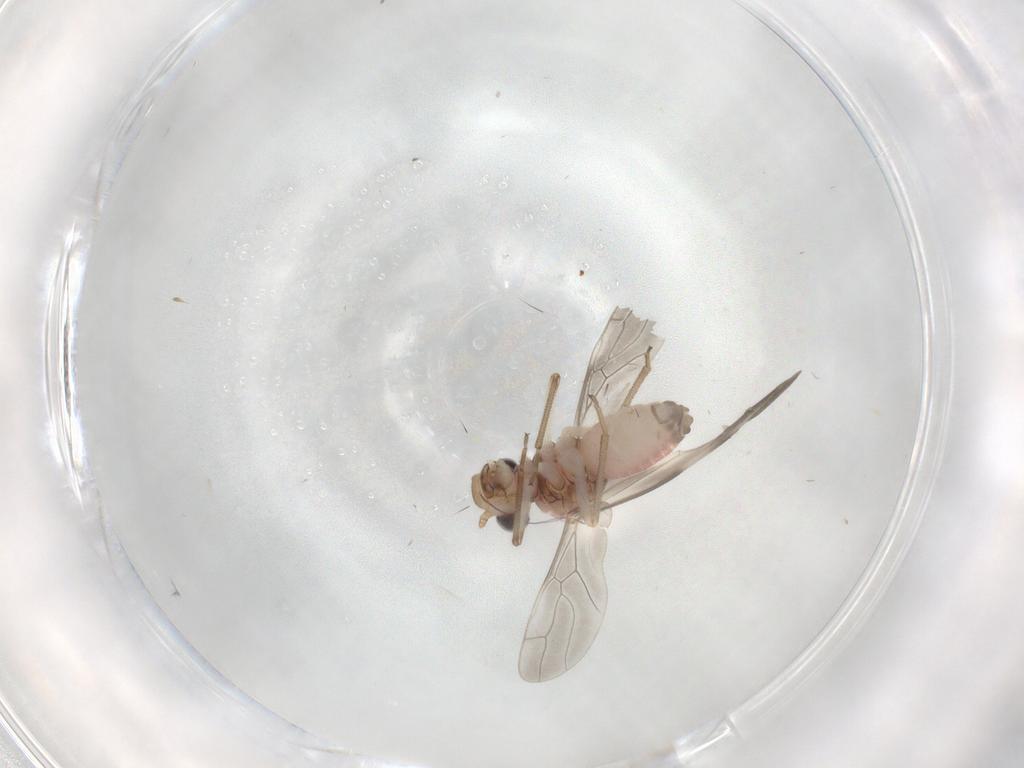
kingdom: Animalia
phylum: Arthropoda
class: Insecta
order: Psocodea
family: Caeciliusidae
